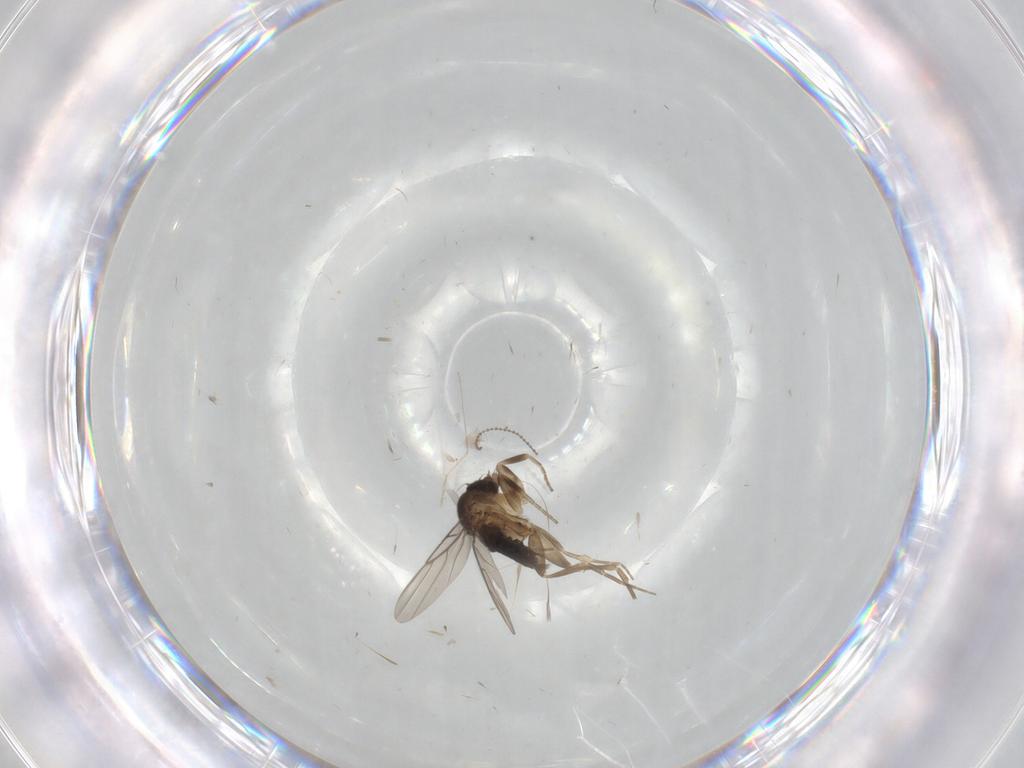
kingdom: Animalia
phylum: Arthropoda
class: Insecta
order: Diptera
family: Phoridae
